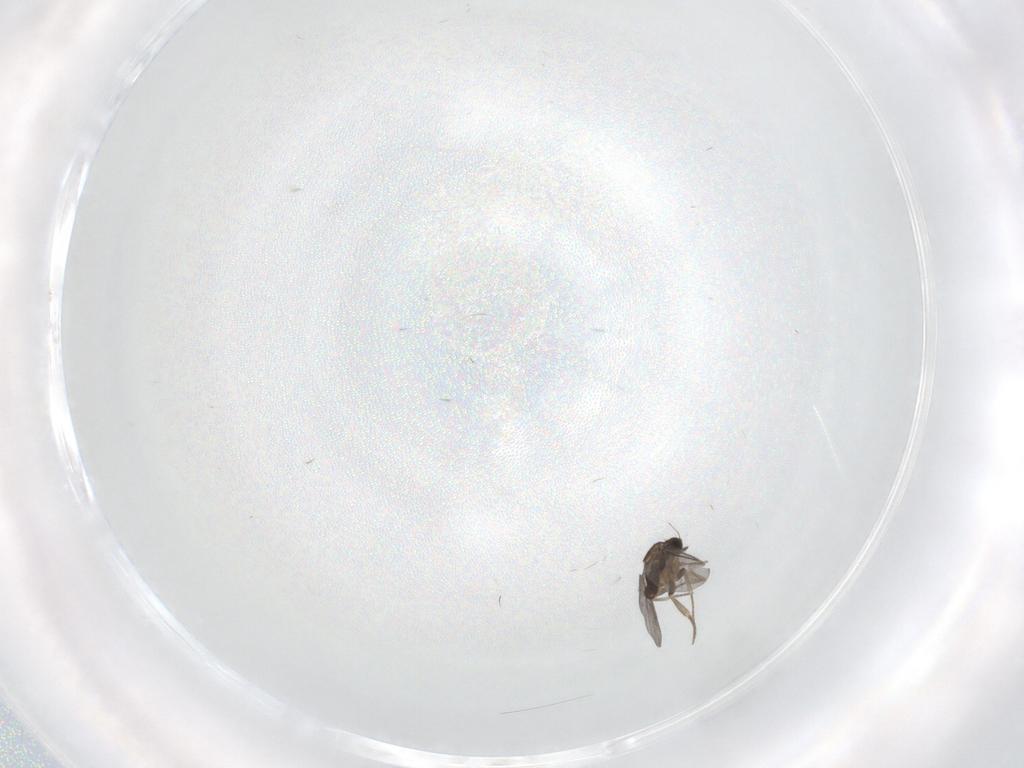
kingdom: Animalia
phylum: Arthropoda
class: Insecta
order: Diptera
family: Phoridae
